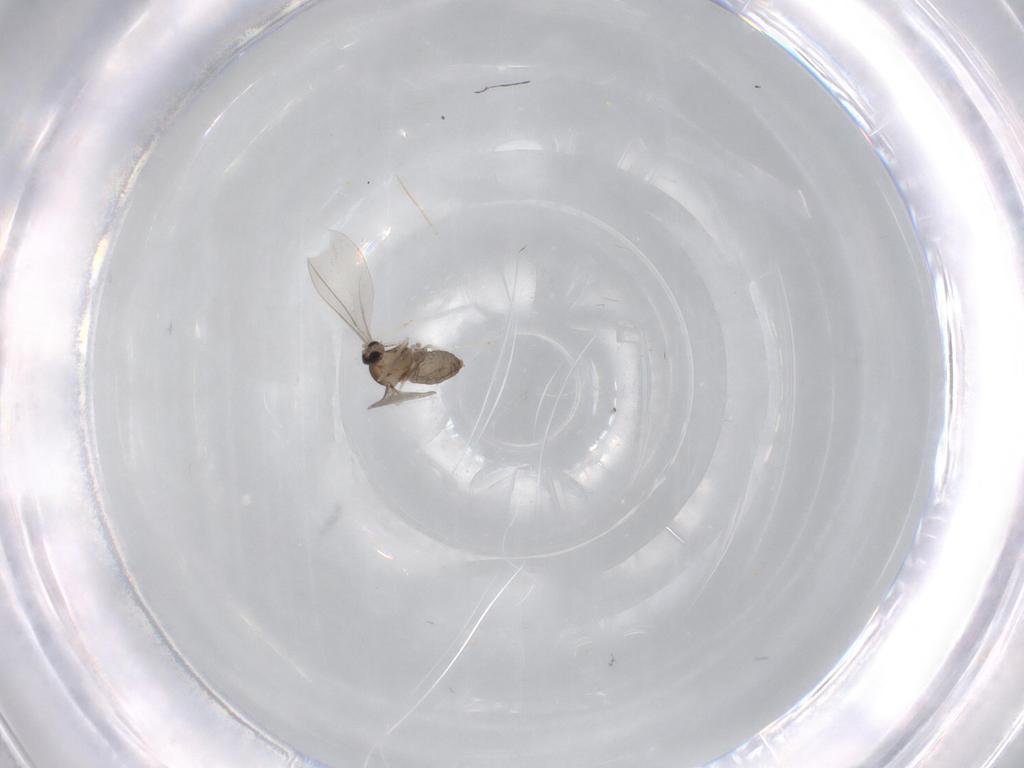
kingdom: Animalia
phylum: Arthropoda
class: Insecta
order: Diptera
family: Cecidomyiidae
